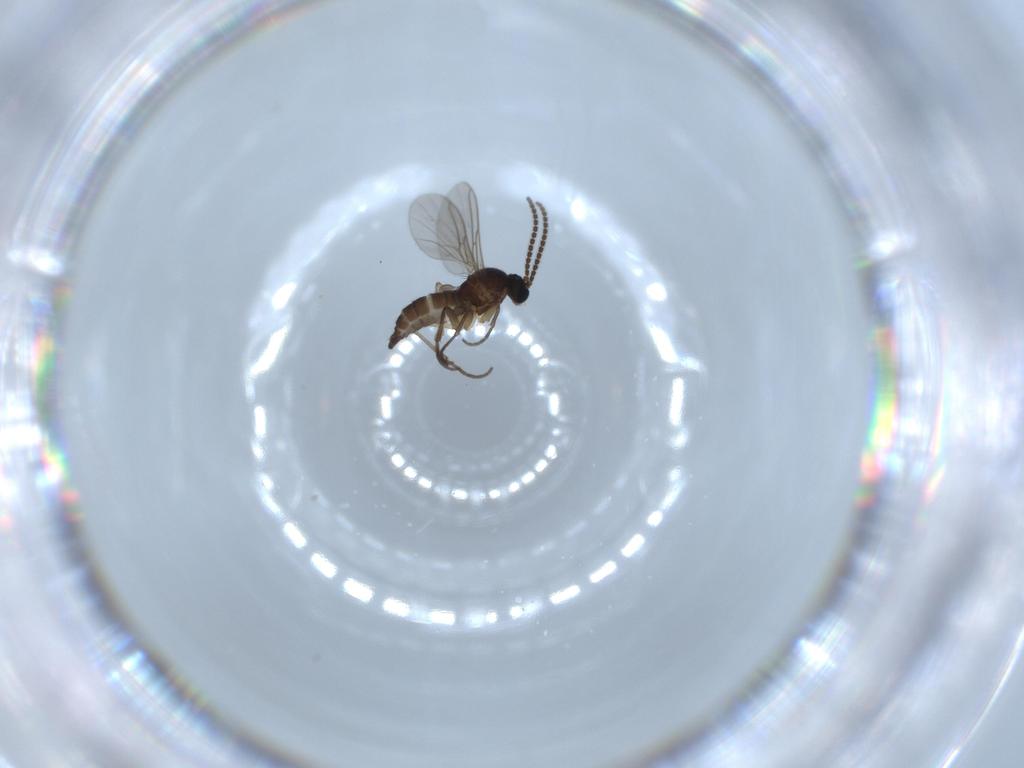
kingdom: Animalia
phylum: Arthropoda
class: Insecta
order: Diptera
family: Sciaridae
